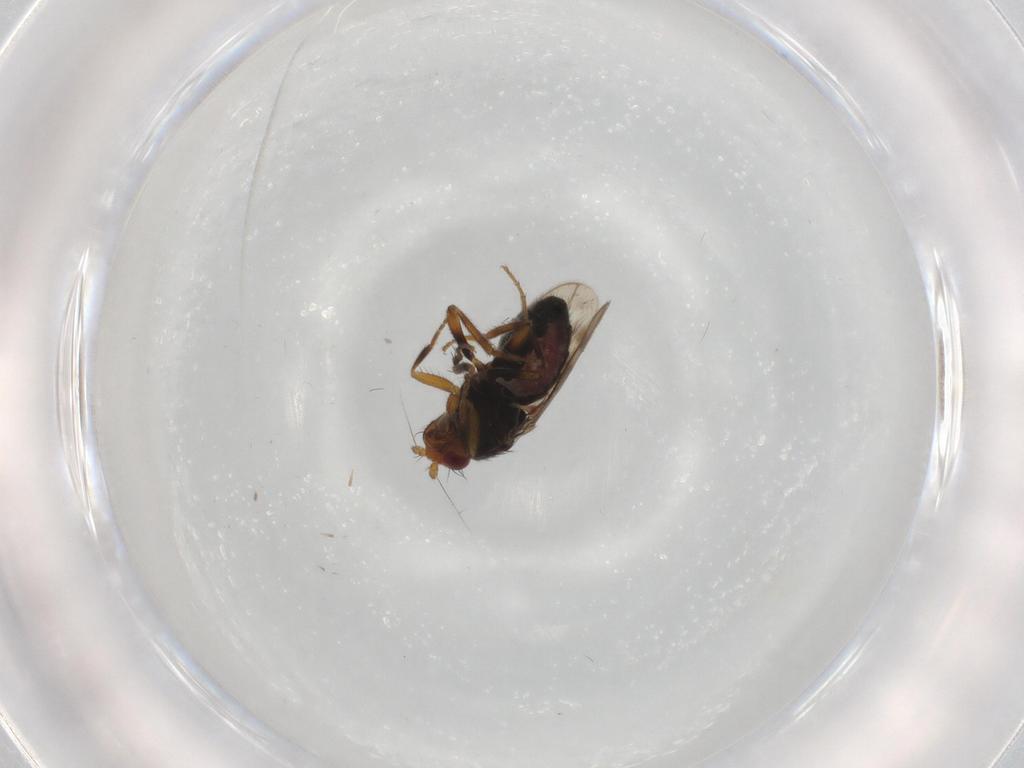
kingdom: Animalia
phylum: Arthropoda
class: Insecta
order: Diptera
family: Sphaeroceridae
